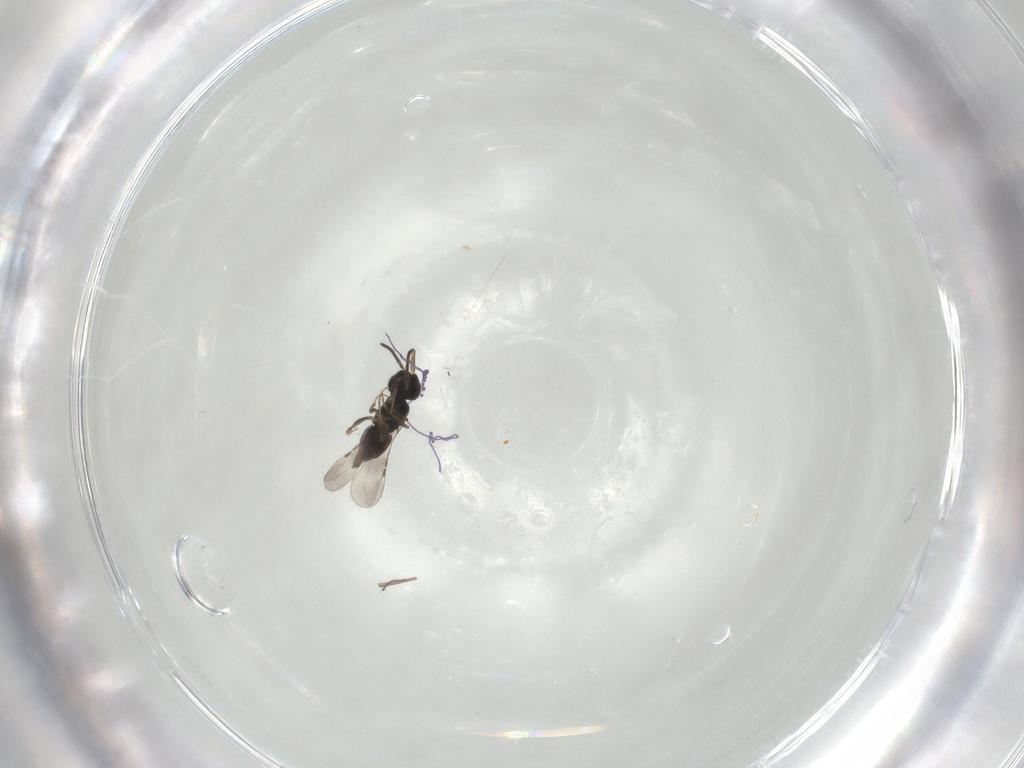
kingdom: Animalia
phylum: Arthropoda
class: Insecta
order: Hymenoptera
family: Ceraphronidae
